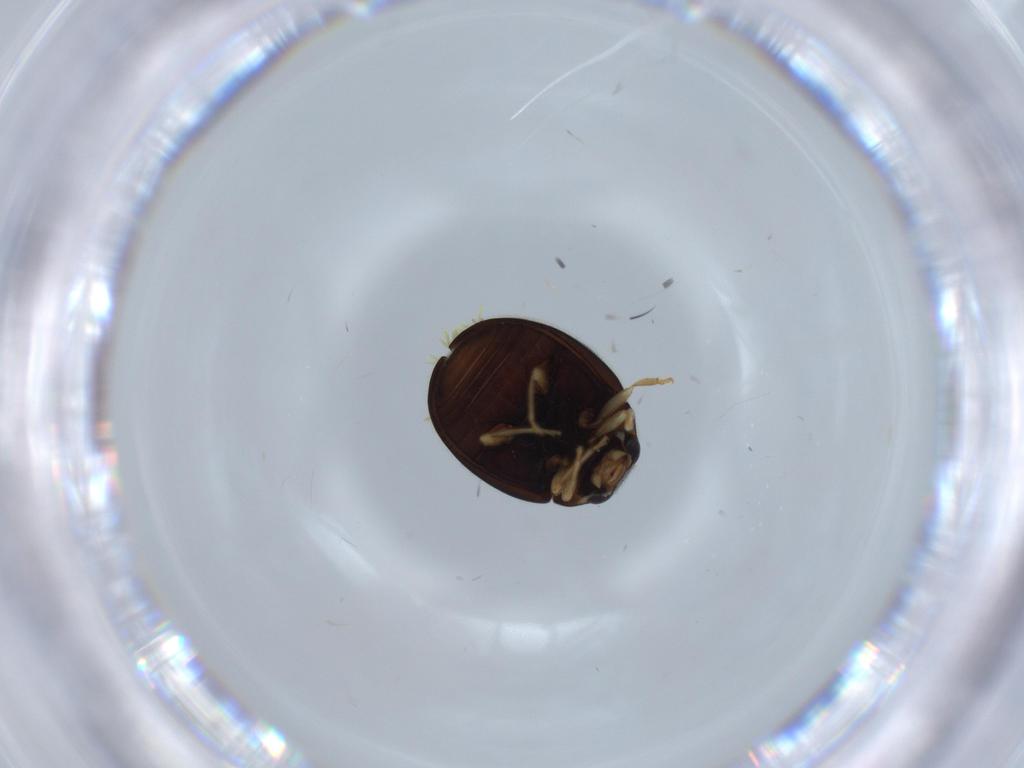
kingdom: Animalia
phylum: Arthropoda
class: Insecta
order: Coleoptera
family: Coccinellidae
